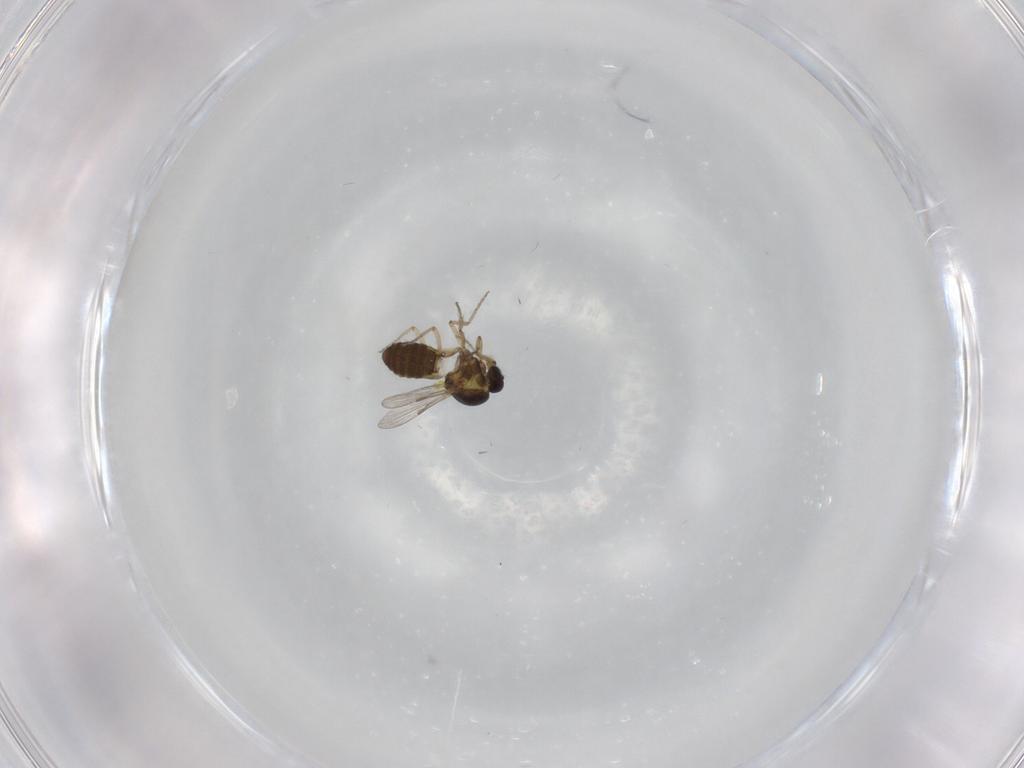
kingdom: Animalia
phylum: Arthropoda
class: Insecta
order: Diptera
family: Ceratopogonidae
